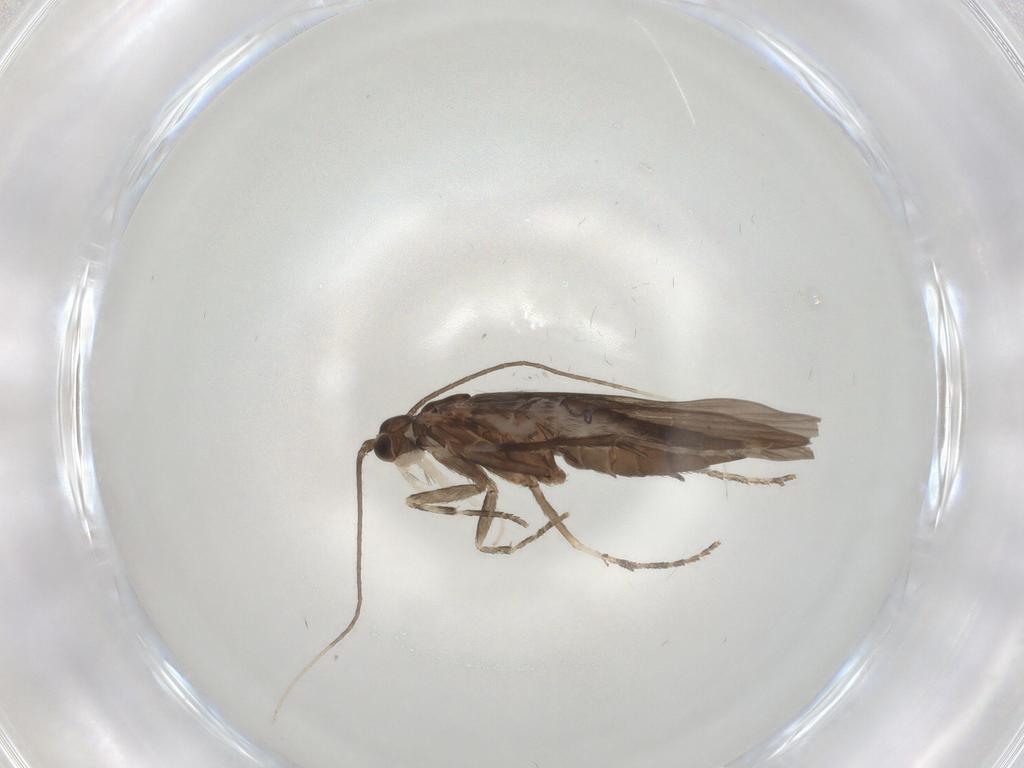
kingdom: Animalia
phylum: Arthropoda
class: Insecta
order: Trichoptera
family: Xiphocentronidae
